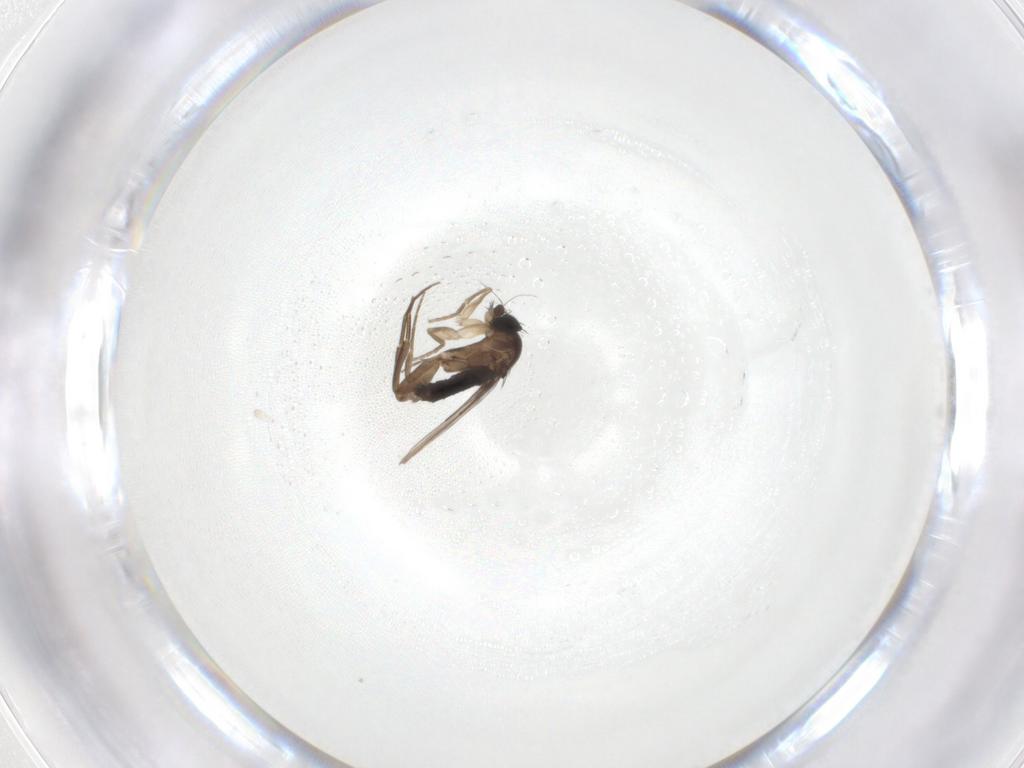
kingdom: Animalia
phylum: Arthropoda
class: Insecta
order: Diptera
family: Phoridae
